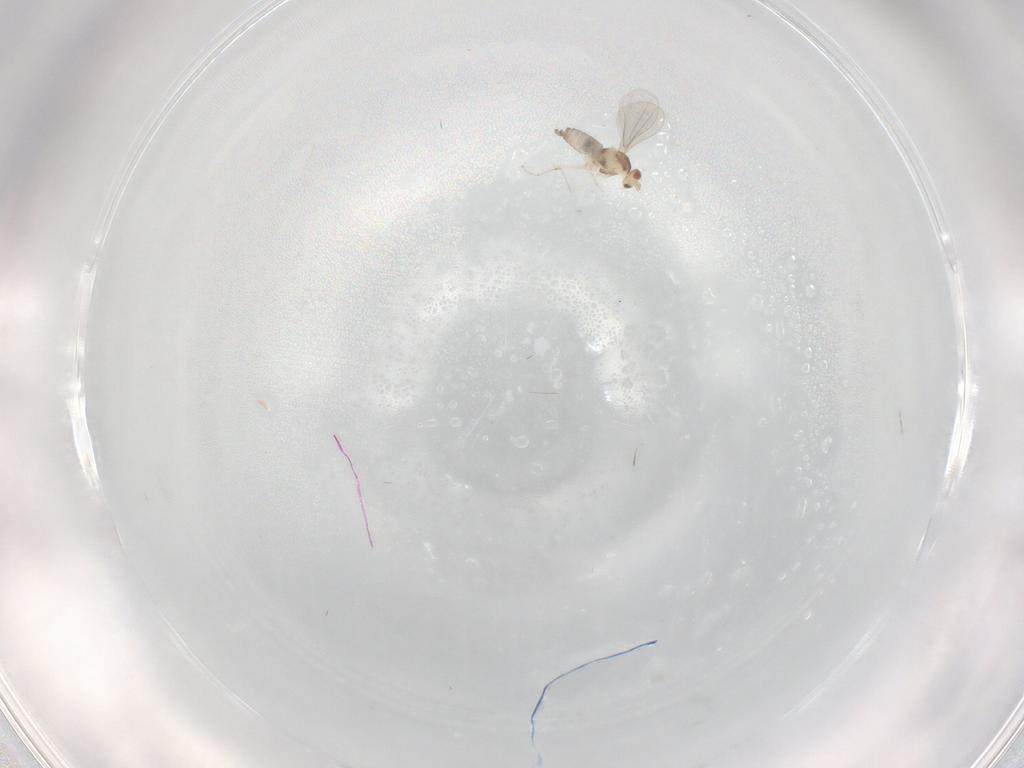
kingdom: Animalia
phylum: Arthropoda
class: Insecta
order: Diptera
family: Cecidomyiidae
